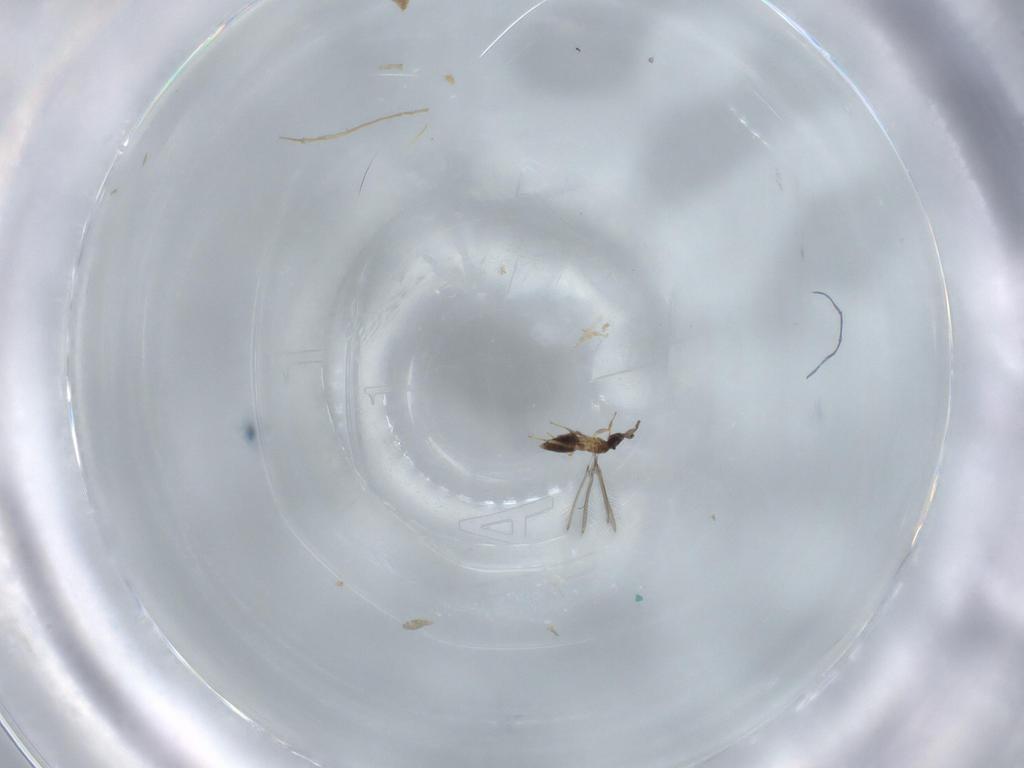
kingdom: Animalia
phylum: Arthropoda
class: Insecta
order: Hymenoptera
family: Mymaridae
